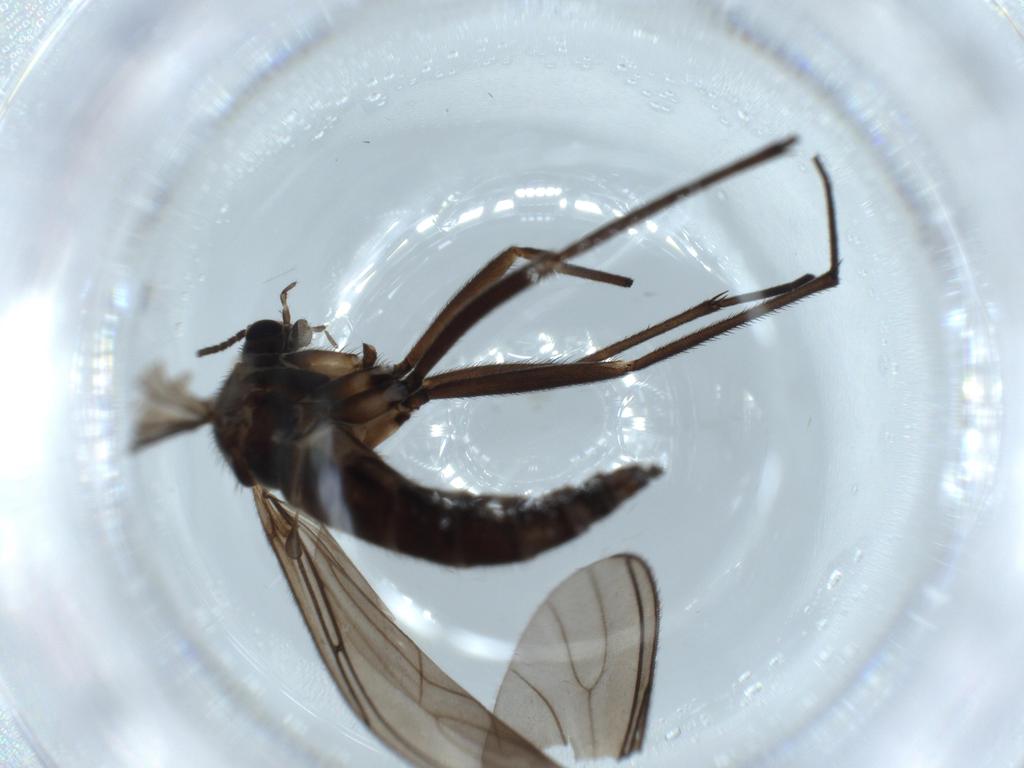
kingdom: Animalia
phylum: Arthropoda
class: Insecta
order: Diptera
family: Sciaridae
